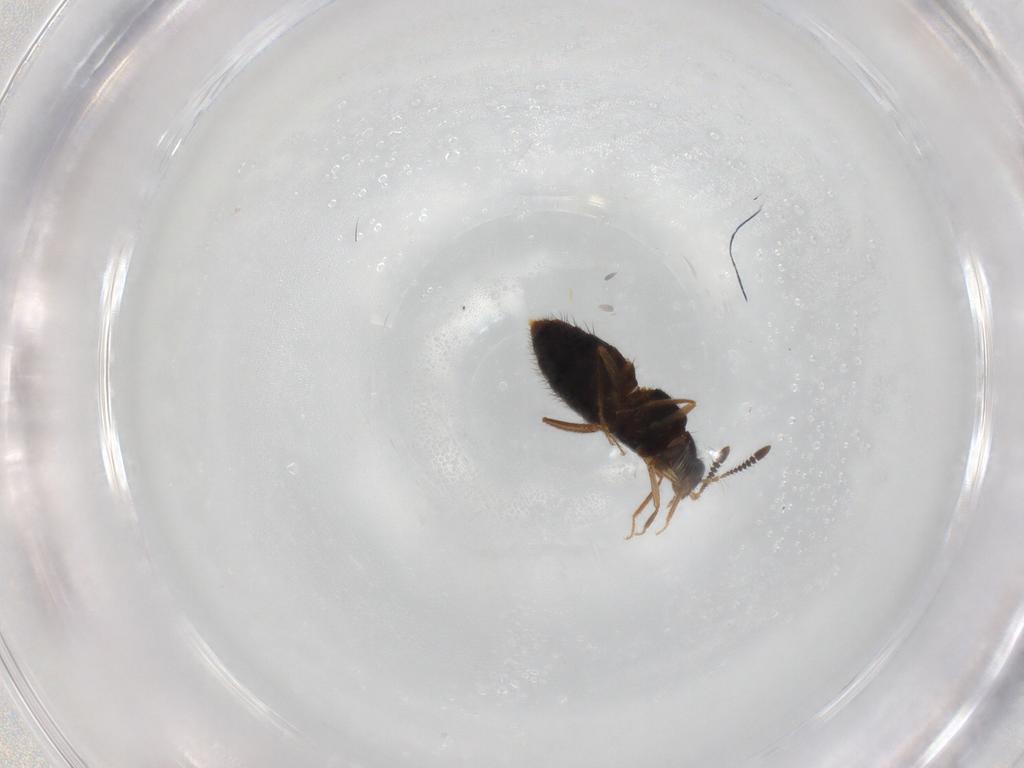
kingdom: Animalia
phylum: Arthropoda
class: Insecta
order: Coleoptera
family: Staphylinidae
